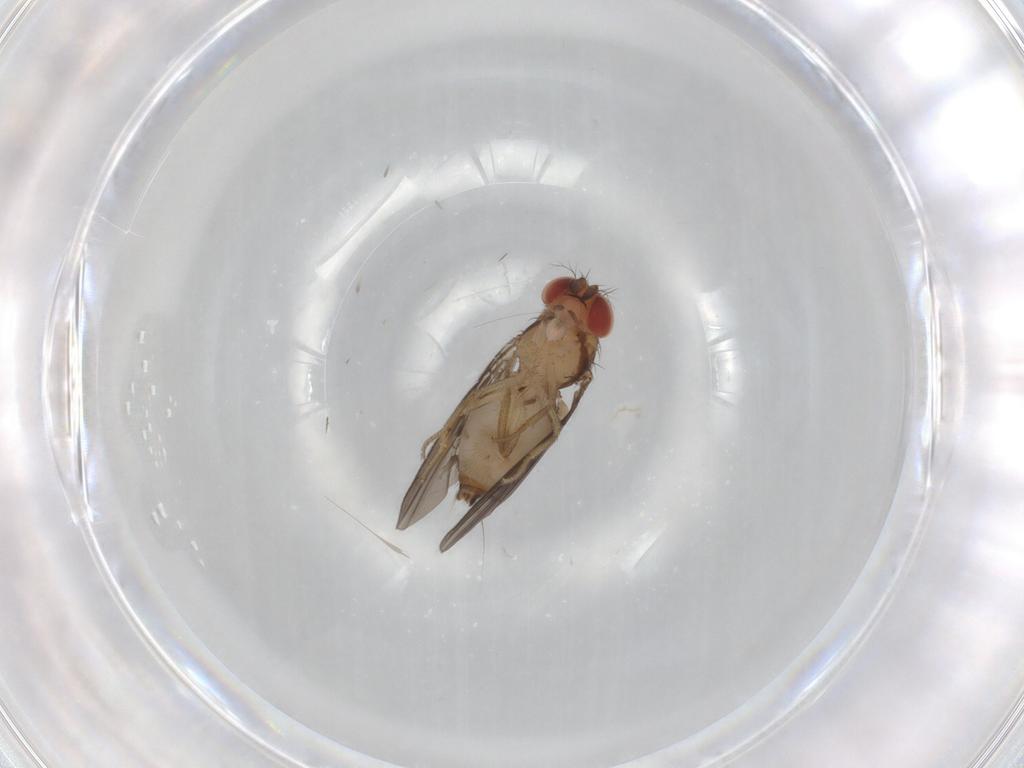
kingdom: Animalia
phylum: Arthropoda
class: Insecta
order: Diptera
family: Drosophilidae
